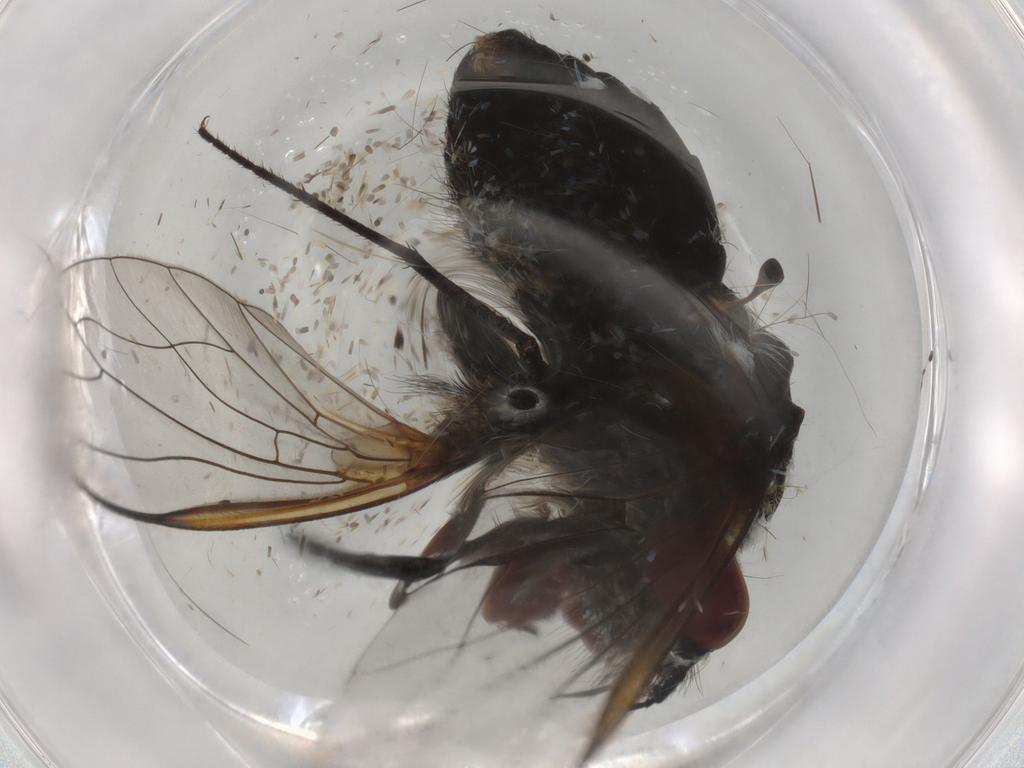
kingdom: Animalia
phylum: Arthropoda
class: Insecta
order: Diptera
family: Bombyliidae
